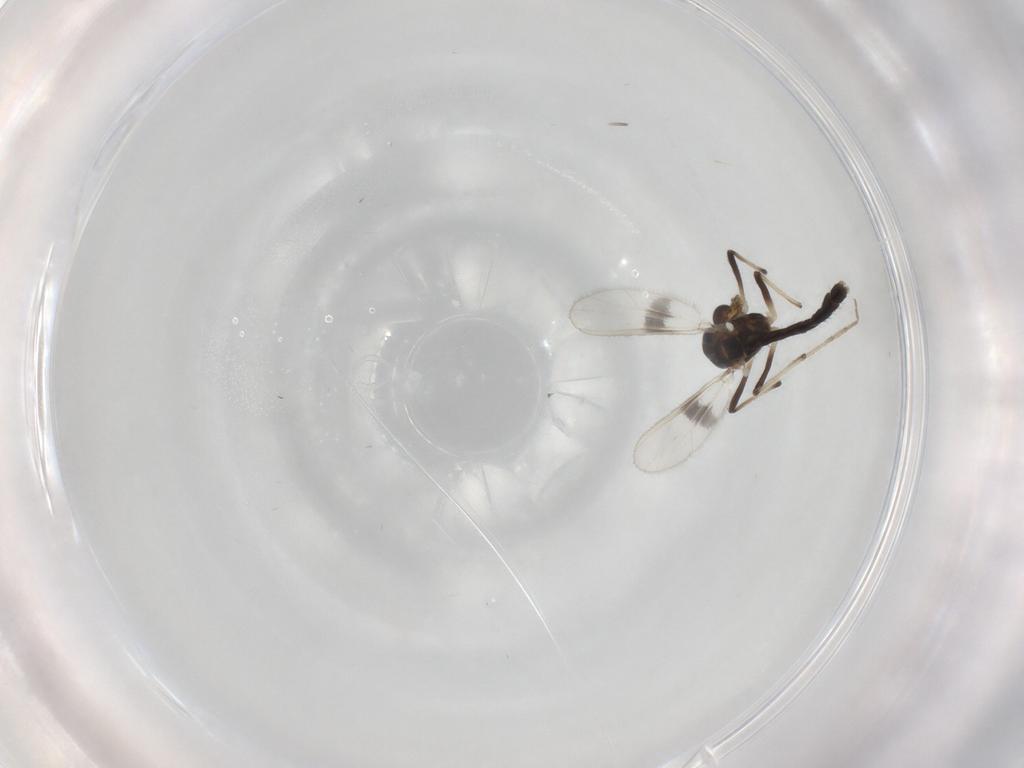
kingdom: Animalia
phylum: Arthropoda
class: Insecta
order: Diptera
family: Chironomidae
